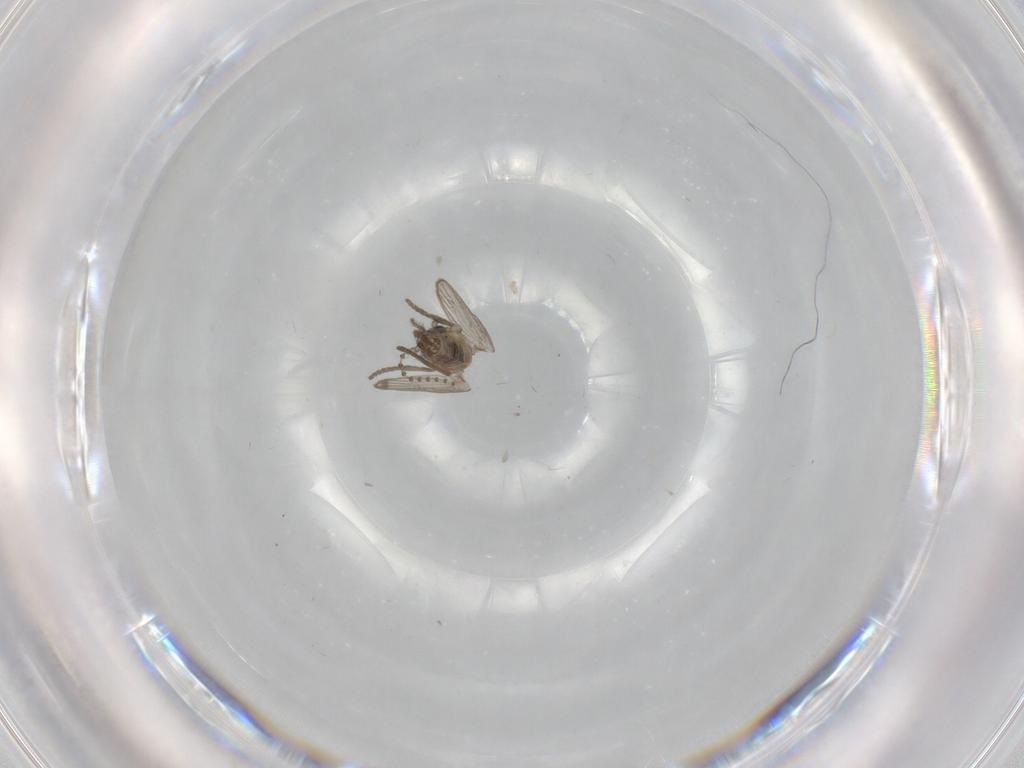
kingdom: Animalia
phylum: Arthropoda
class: Insecta
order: Diptera
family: Psychodidae
